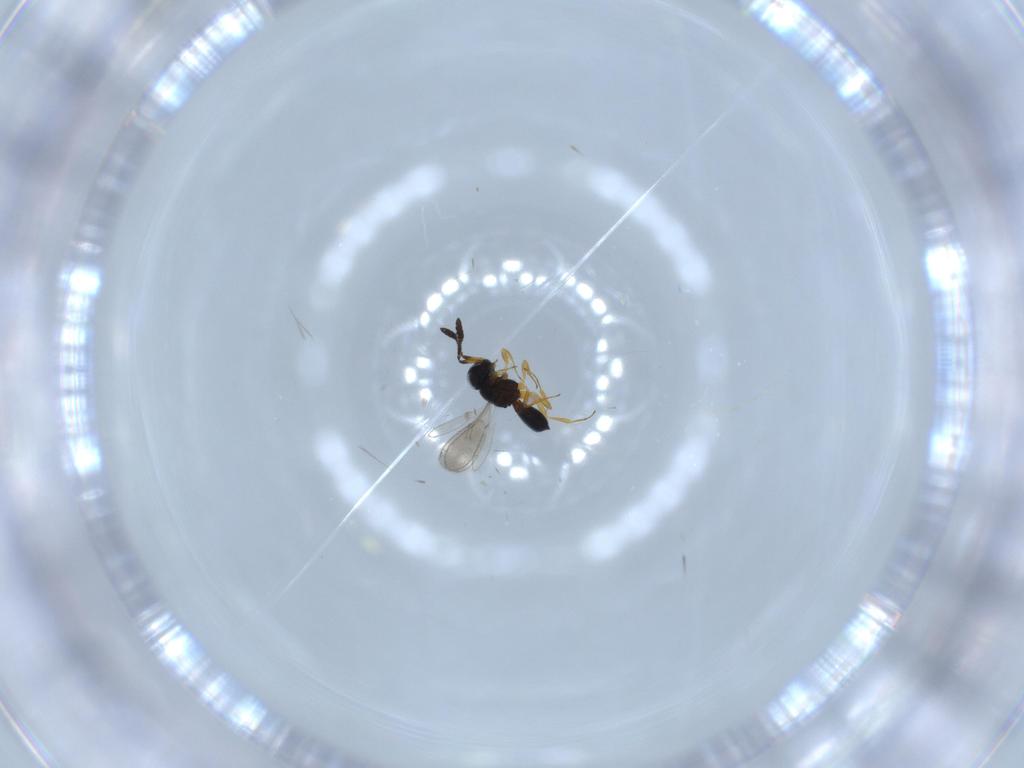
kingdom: Animalia
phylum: Arthropoda
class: Insecta
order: Hymenoptera
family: Scelionidae
